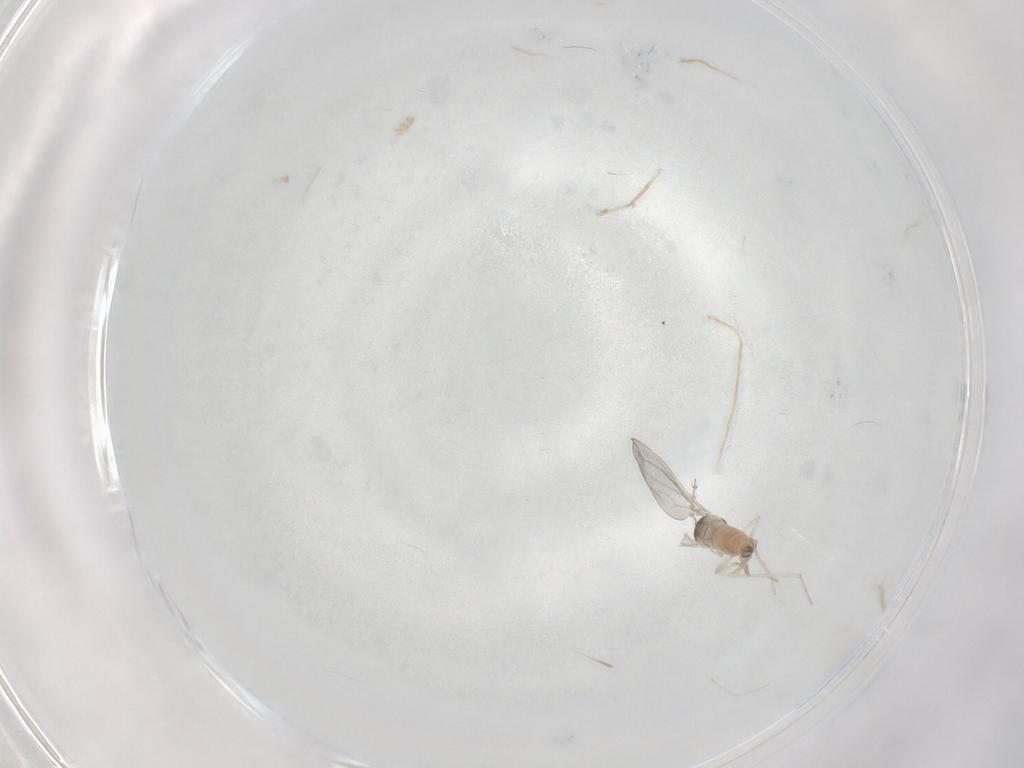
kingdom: Animalia
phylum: Arthropoda
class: Insecta
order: Diptera
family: Chironomidae
